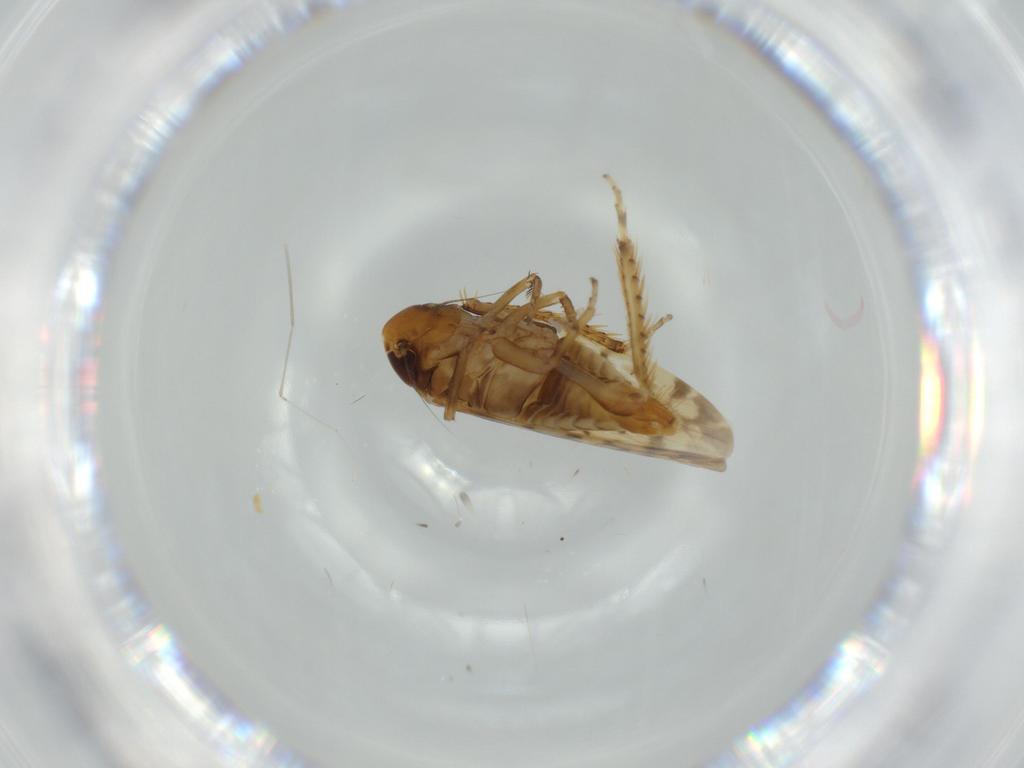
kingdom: Animalia
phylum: Arthropoda
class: Insecta
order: Hemiptera
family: Cicadellidae
